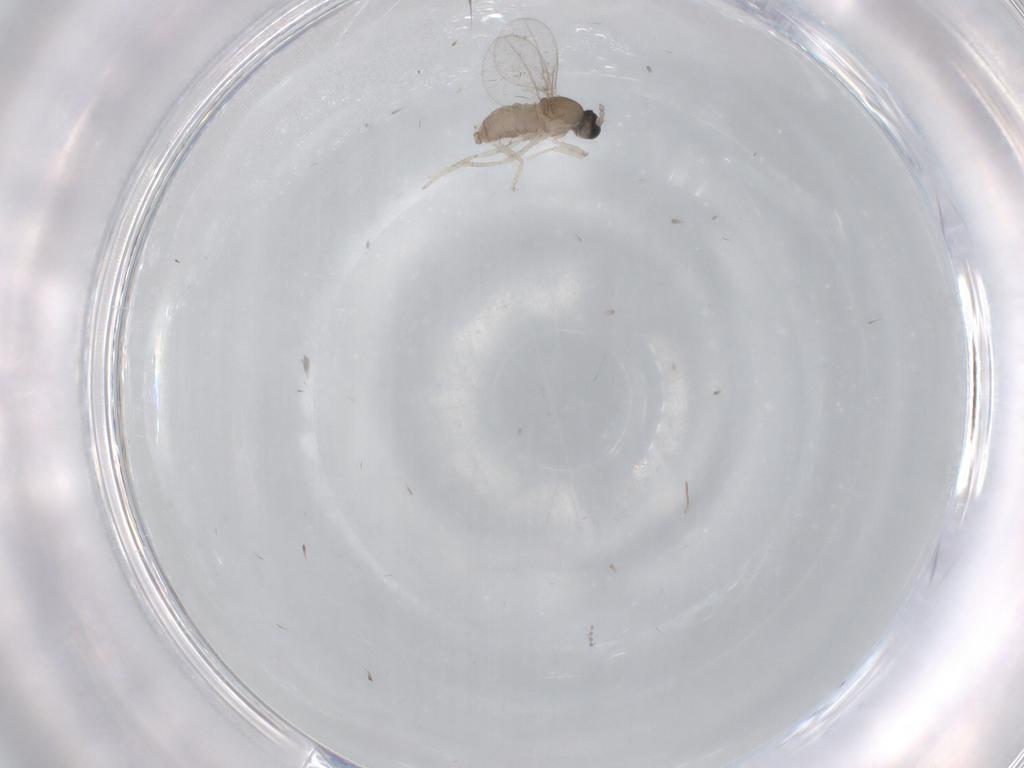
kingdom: Animalia
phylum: Arthropoda
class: Insecta
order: Diptera
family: Cecidomyiidae
